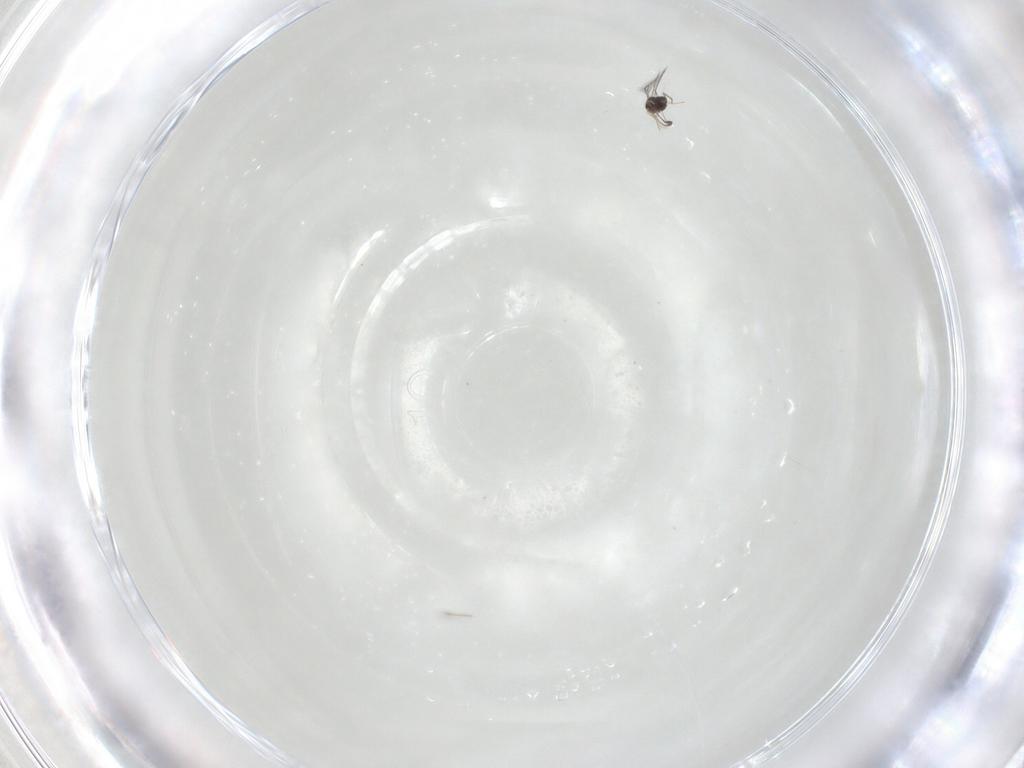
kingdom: Animalia
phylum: Arthropoda
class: Insecta
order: Hymenoptera
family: Mymaridae
